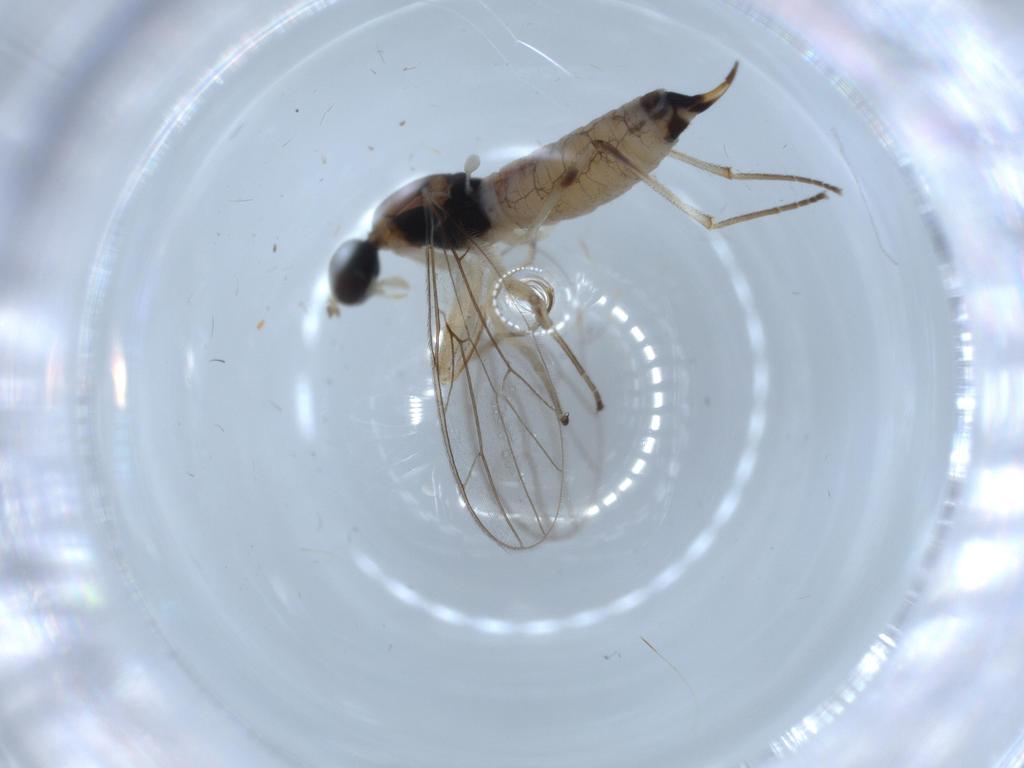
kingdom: Animalia
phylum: Arthropoda
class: Insecta
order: Diptera
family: Empididae
